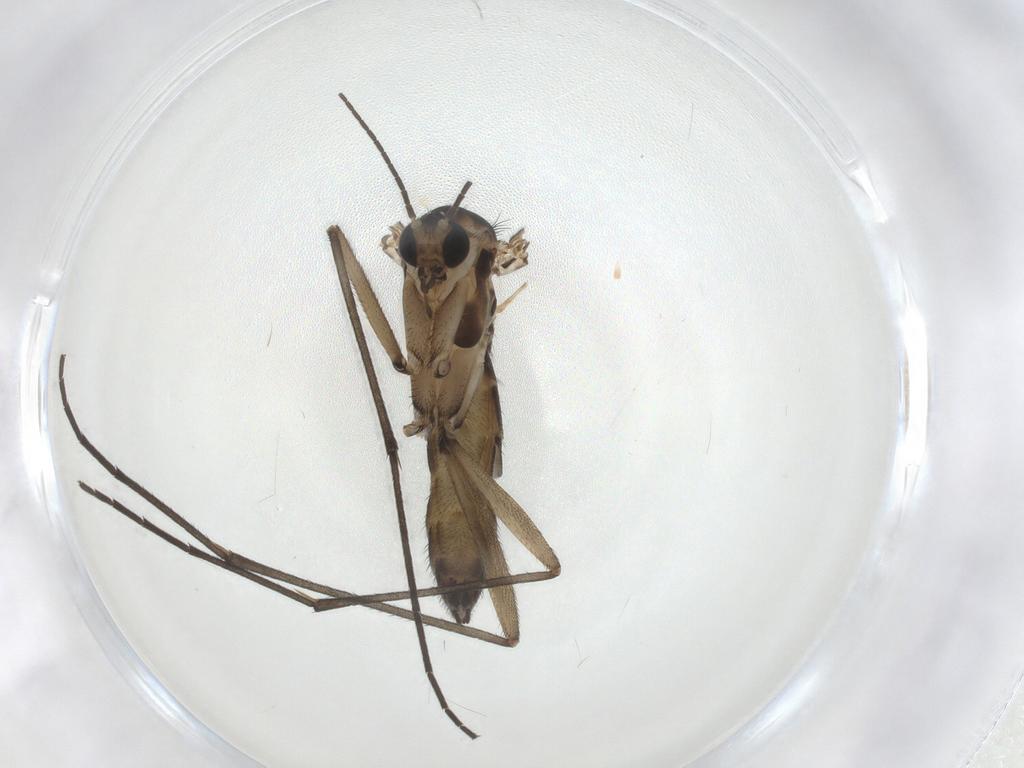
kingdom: Animalia
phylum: Arthropoda
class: Insecta
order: Diptera
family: Sciaridae
